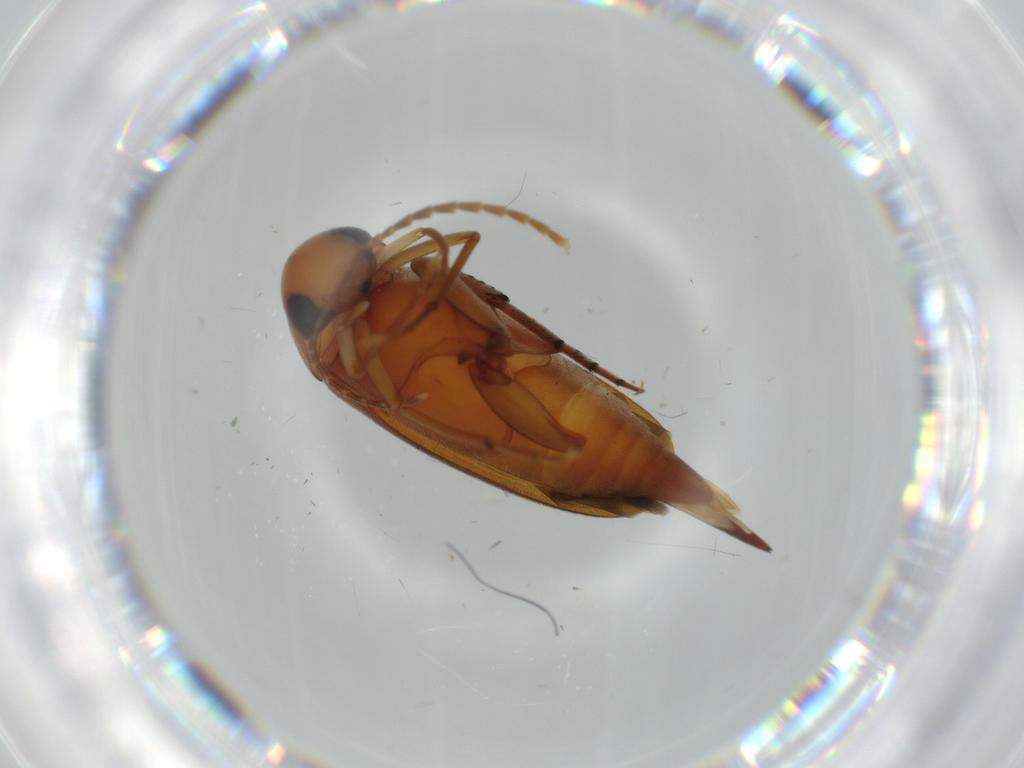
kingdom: Animalia
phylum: Arthropoda
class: Insecta
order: Coleoptera
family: Mordellidae
